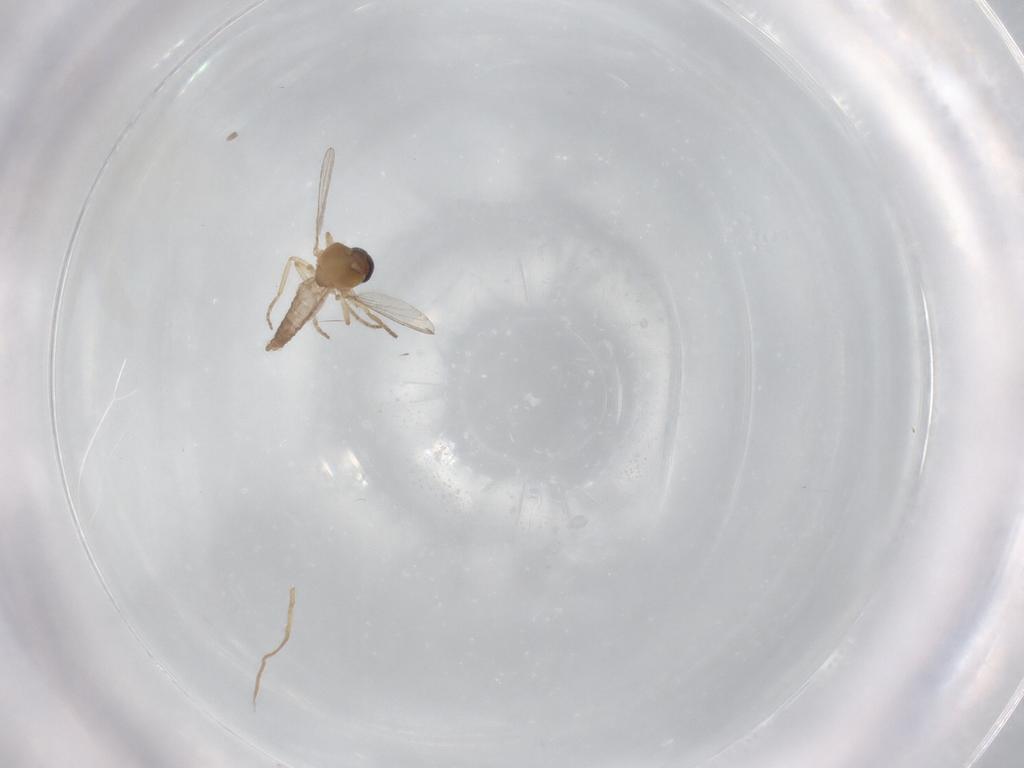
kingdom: Animalia
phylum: Arthropoda
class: Insecta
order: Diptera
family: Ceratopogonidae
